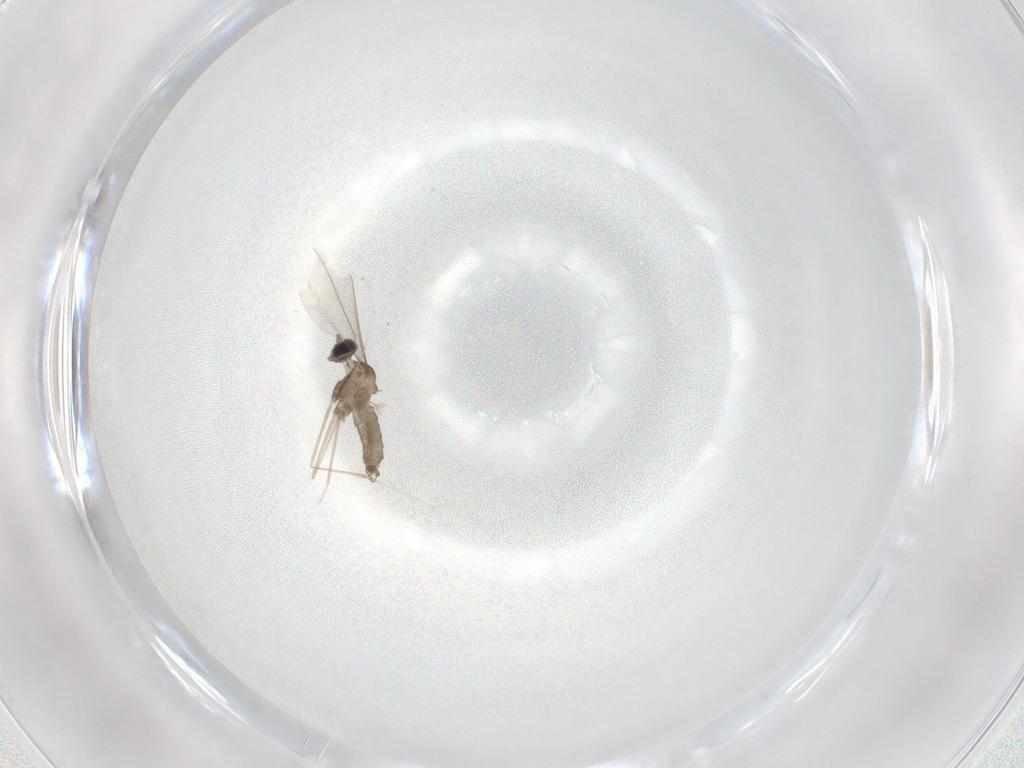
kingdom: Animalia
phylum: Arthropoda
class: Insecta
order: Diptera
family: Cecidomyiidae
